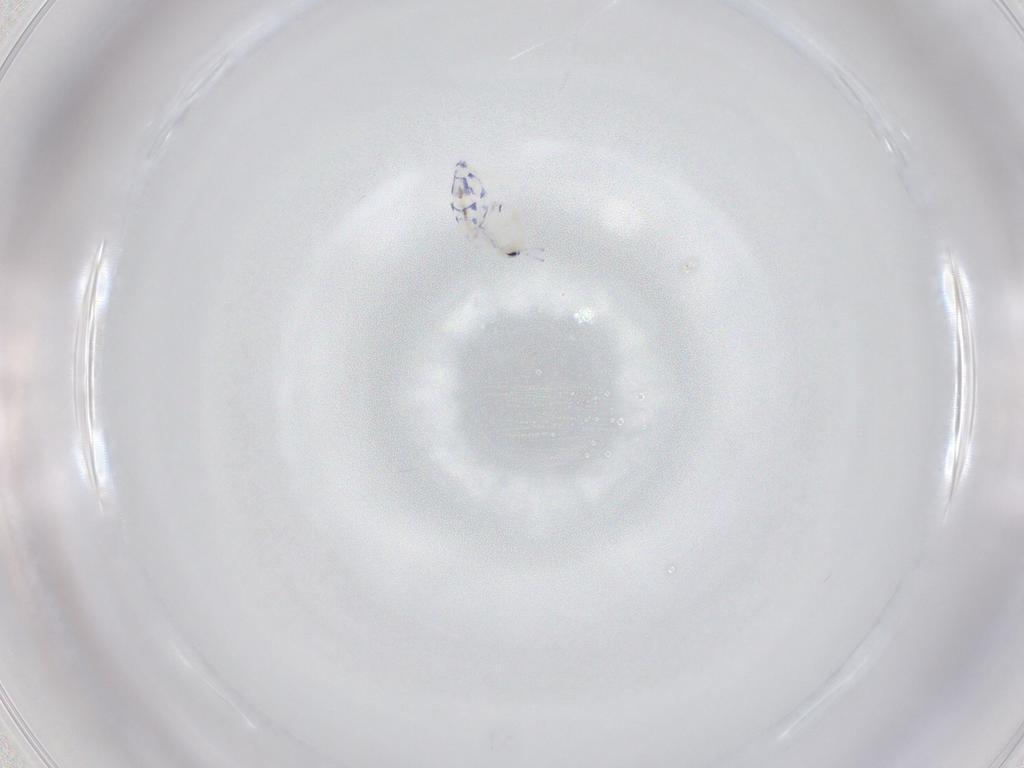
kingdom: Animalia
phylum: Arthropoda
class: Collembola
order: Entomobryomorpha
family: Entomobryidae
